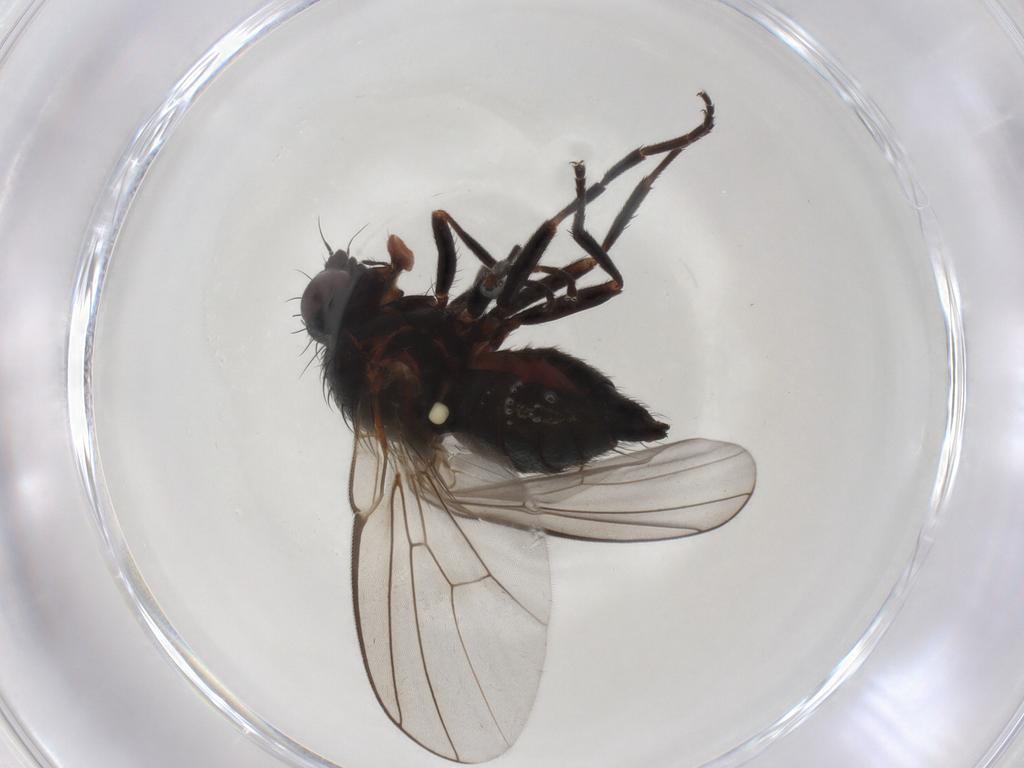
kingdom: Animalia
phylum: Arthropoda
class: Insecta
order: Diptera
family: Agromyzidae
